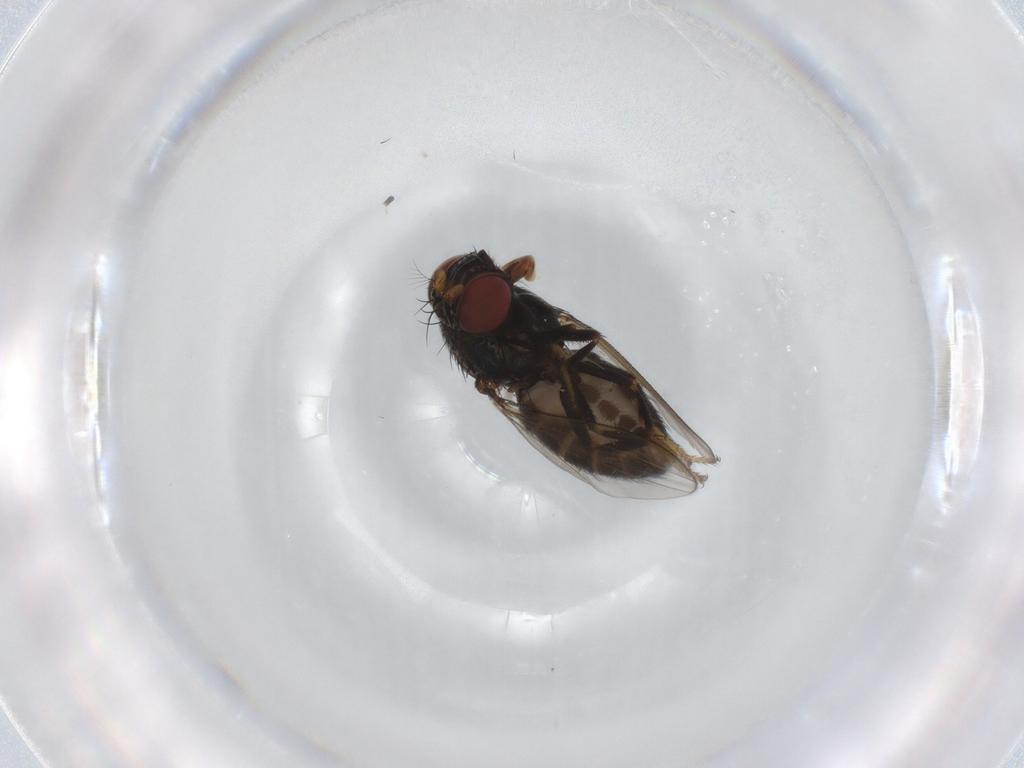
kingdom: Animalia
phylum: Arthropoda
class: Insecta
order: Diptera
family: Ephydridae
